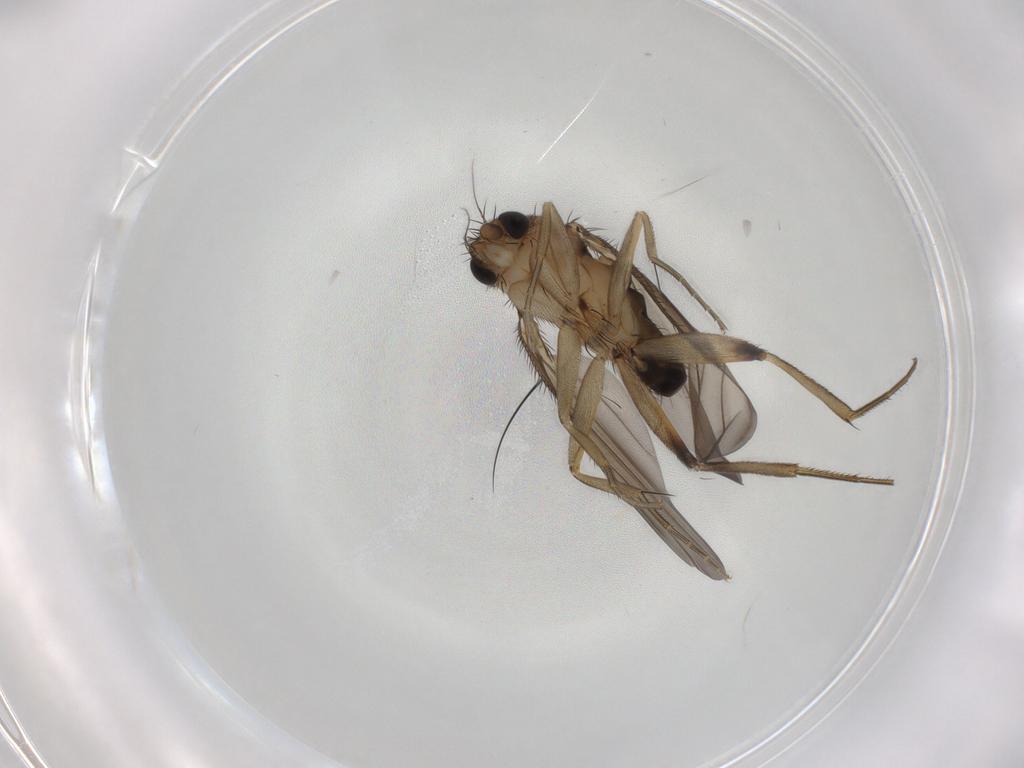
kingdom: Animalia
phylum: Arthropoda
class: Insecta
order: Diptera
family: Phoridae
